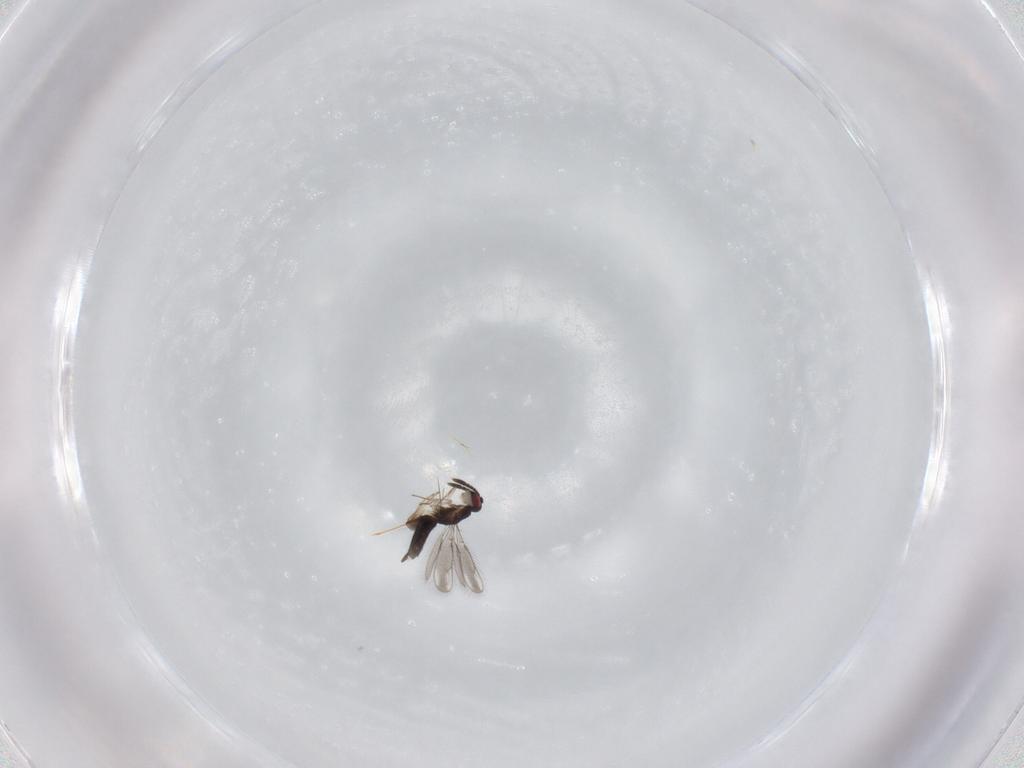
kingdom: Animalia
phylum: Arthropoda
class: Insecta
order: Hymenoptera
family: Pteromalidae
